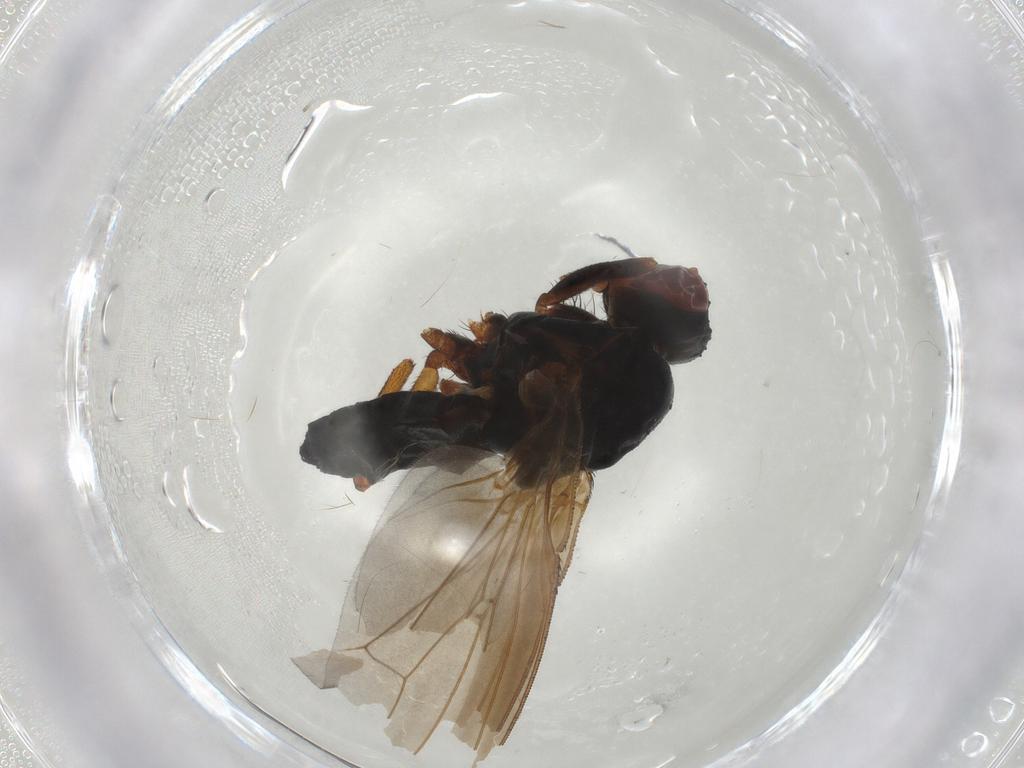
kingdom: Animalia
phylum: Arthropoda
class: Insecta
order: Diptera
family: Heleomyzidae
